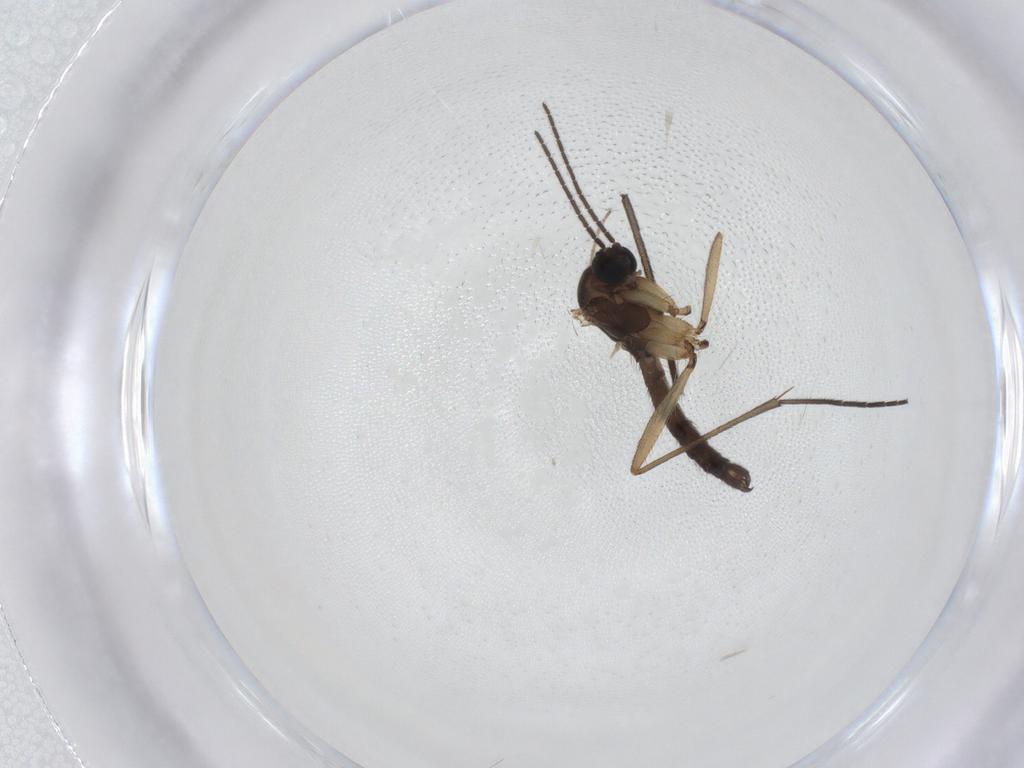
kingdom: Animalia
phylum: Arthropoda
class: Insecta
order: Diptera
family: Sciaridae
